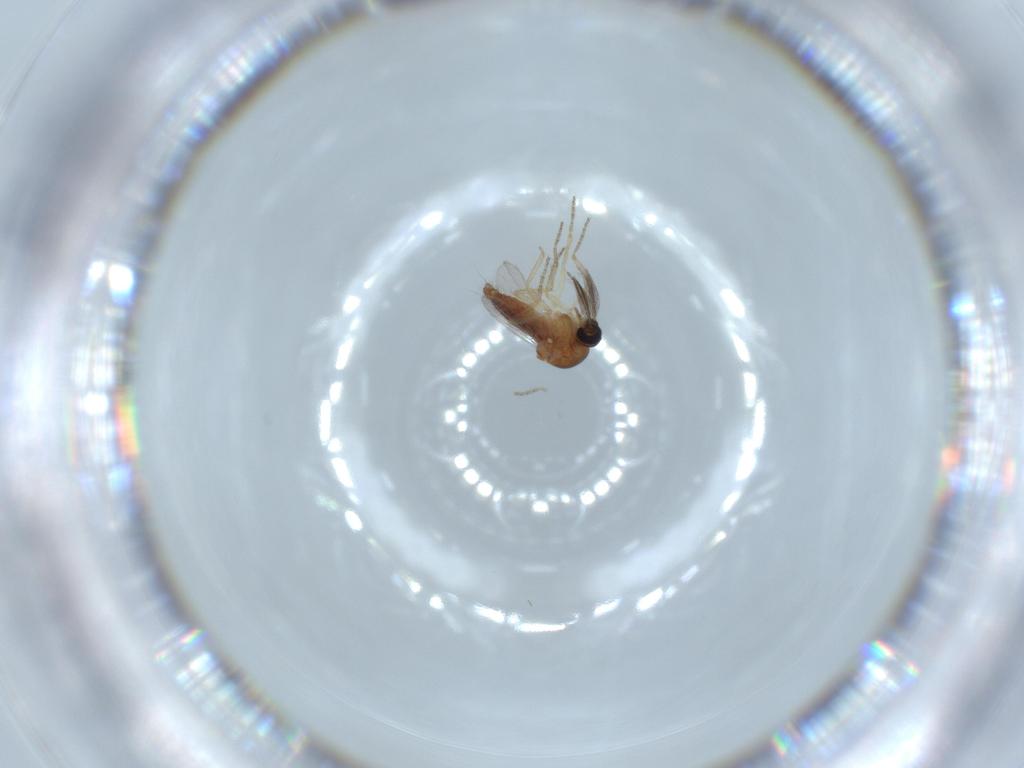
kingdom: Animalia
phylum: Arthropoda
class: Insecta
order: Diptera
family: Ceratopogonidae
